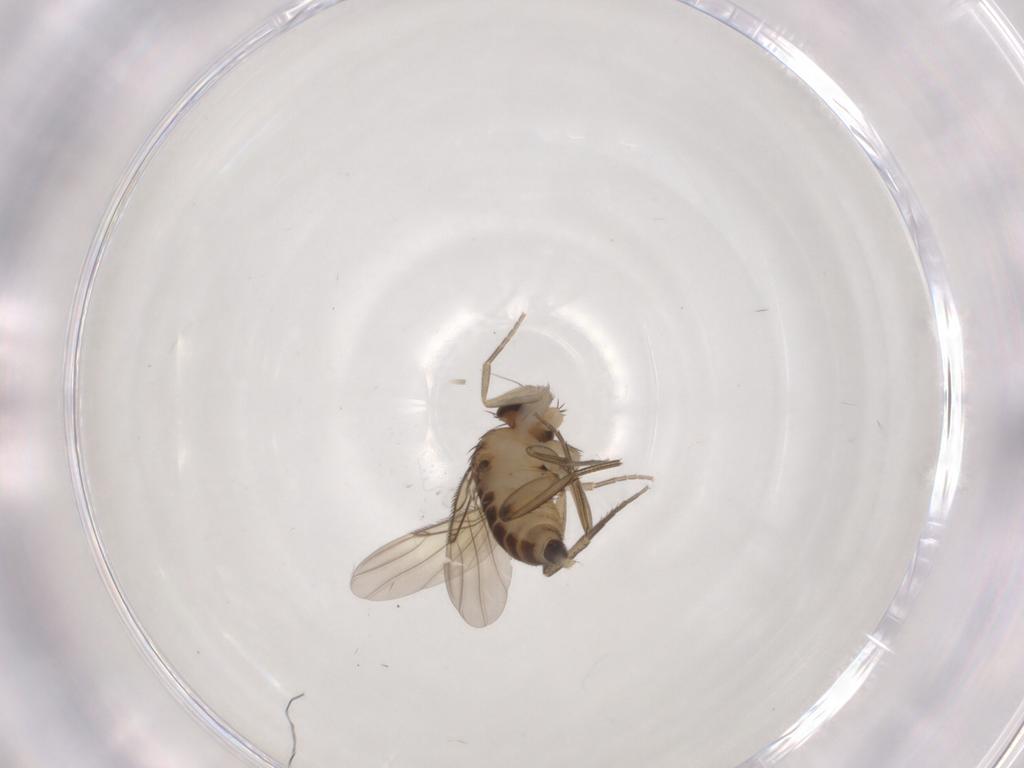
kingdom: Animalia
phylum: Arthropoda
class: Insecta
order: Diptera
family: Phoridae
